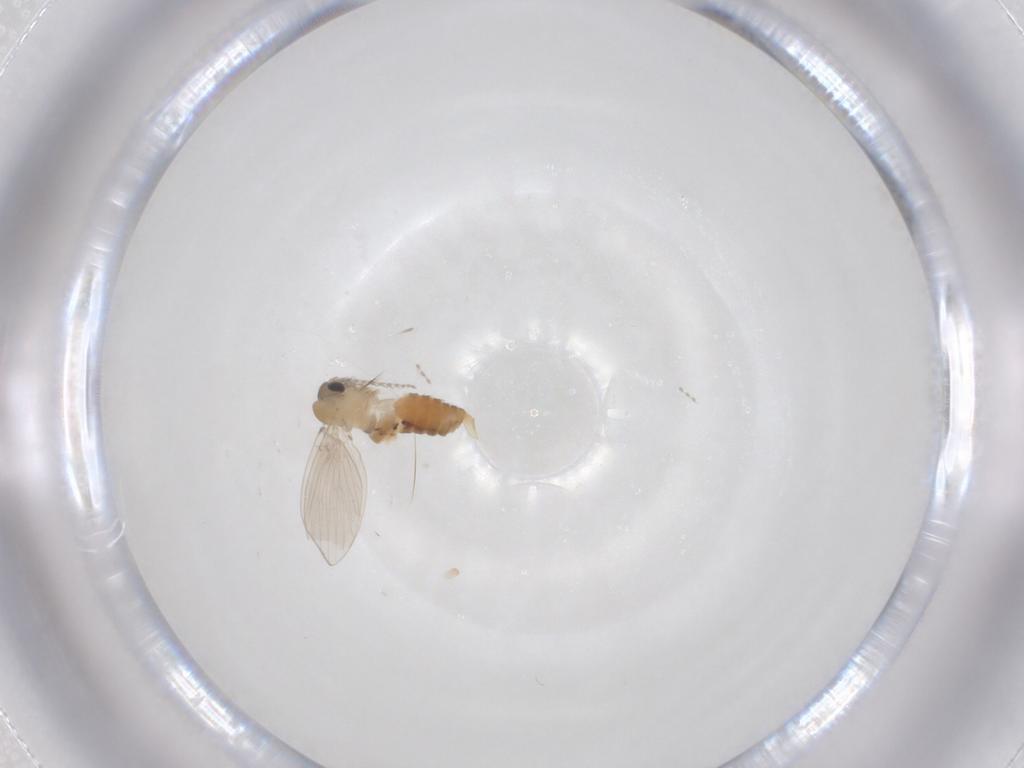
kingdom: Animalia
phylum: Arthropoda
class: Insecta
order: Diptera
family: Psychodidae
